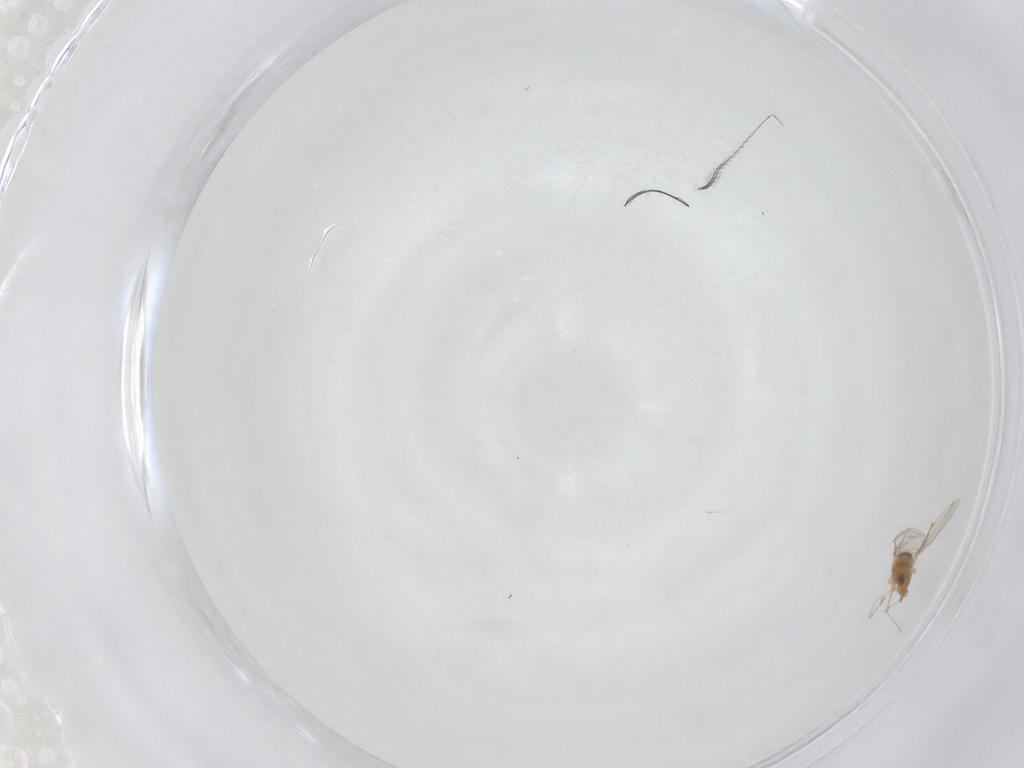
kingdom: Animalia
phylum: Arthropoda
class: Insecta
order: Diptera
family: Cecidomyiidae
